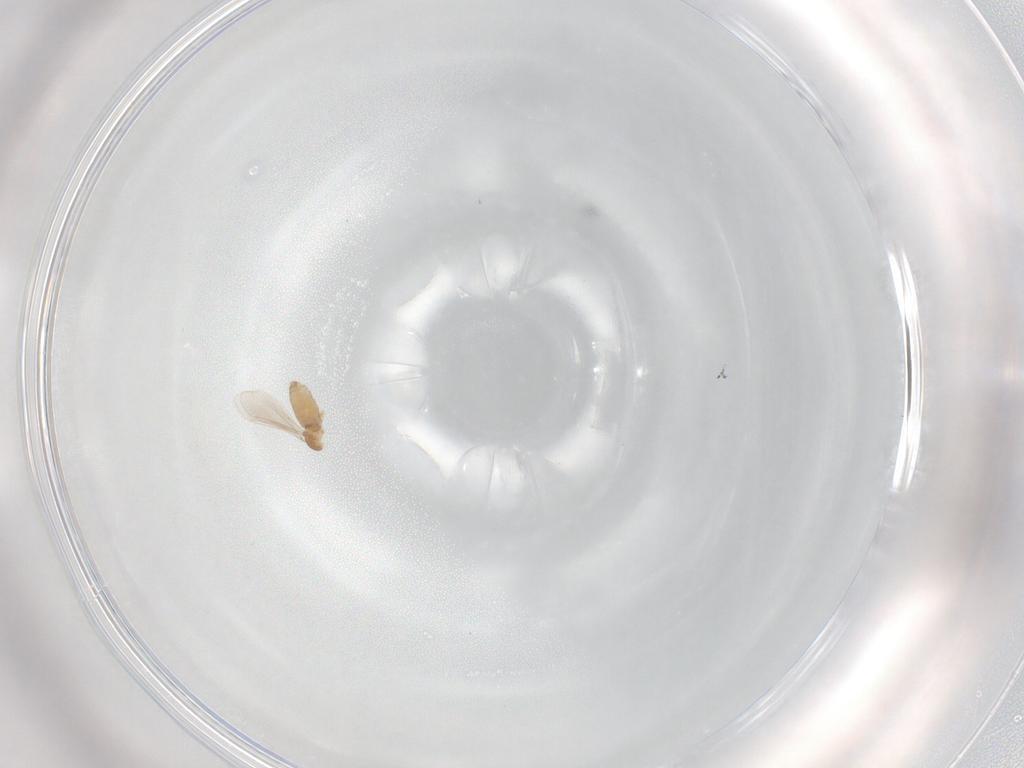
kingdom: Animalia
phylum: Arthropoda
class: Insecta
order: Diptera
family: Cecidomyiidae
